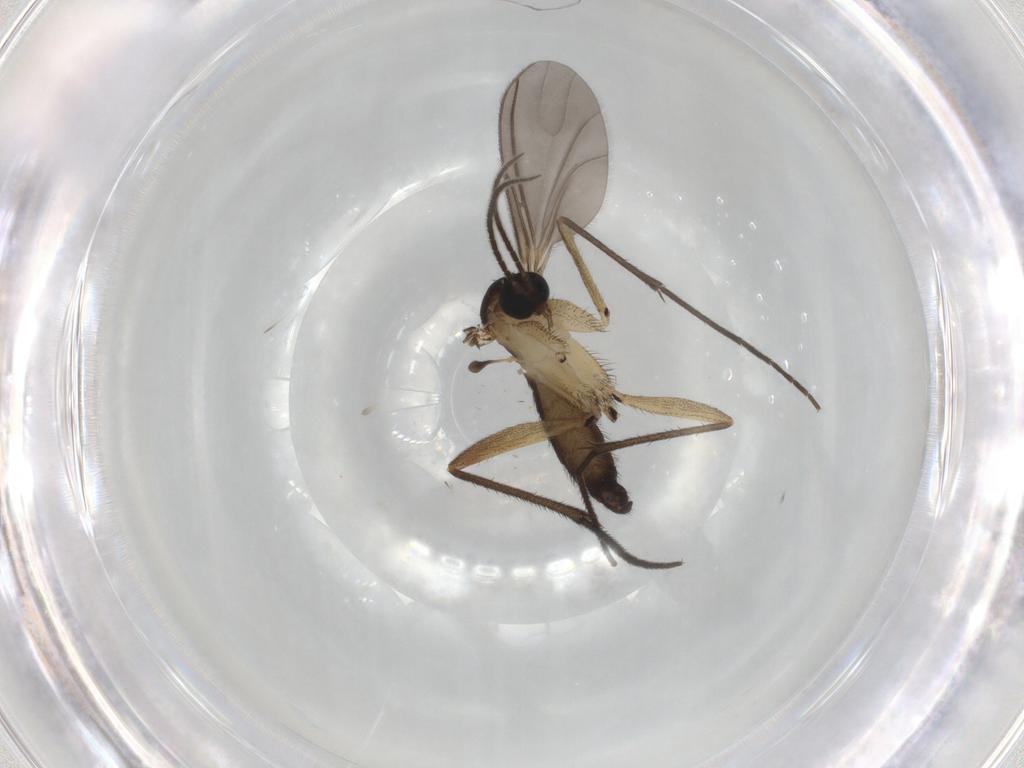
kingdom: Animalia
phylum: Arthropoda
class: Insecta
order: Diptera
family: Sciaridae
